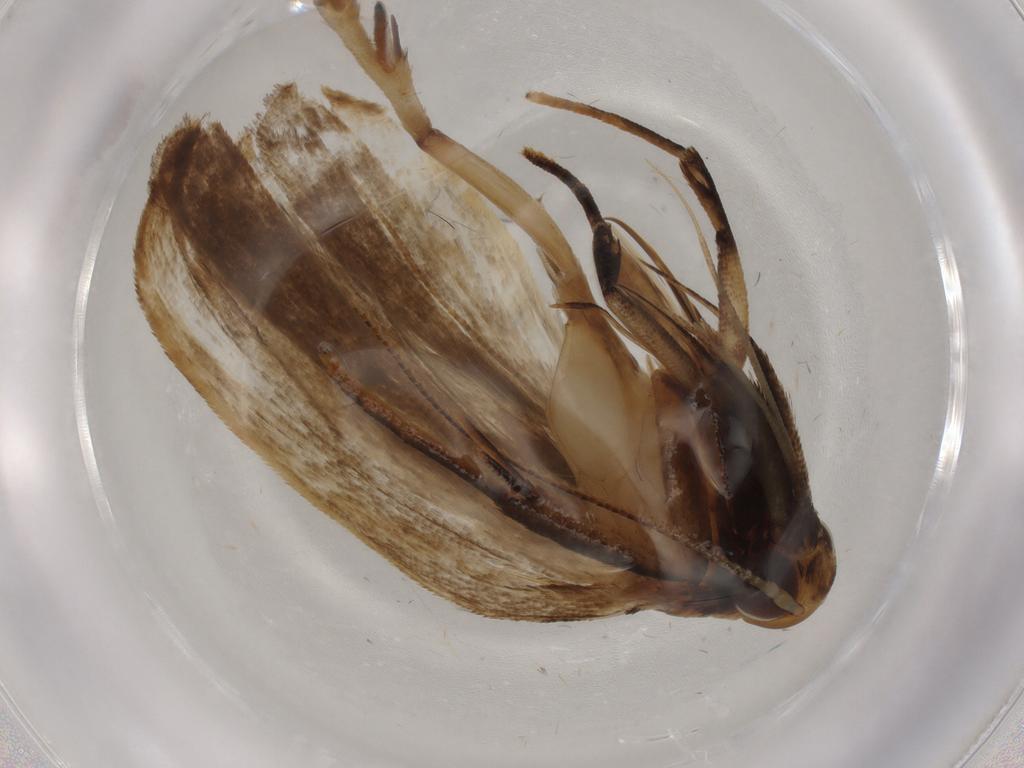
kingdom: Animalia
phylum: Arthropoda
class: Insecta
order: Lepidoptera
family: Gelechiidae
